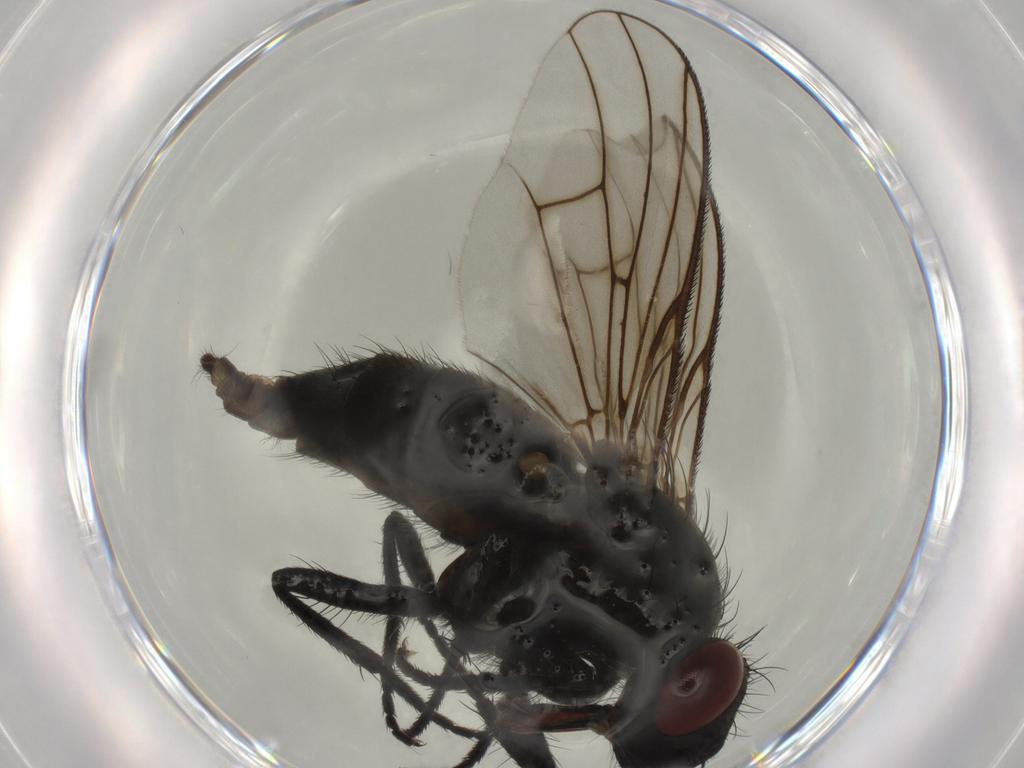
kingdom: Animalia
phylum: Arthropoda
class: Insecta
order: Diptera
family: Muscidae
